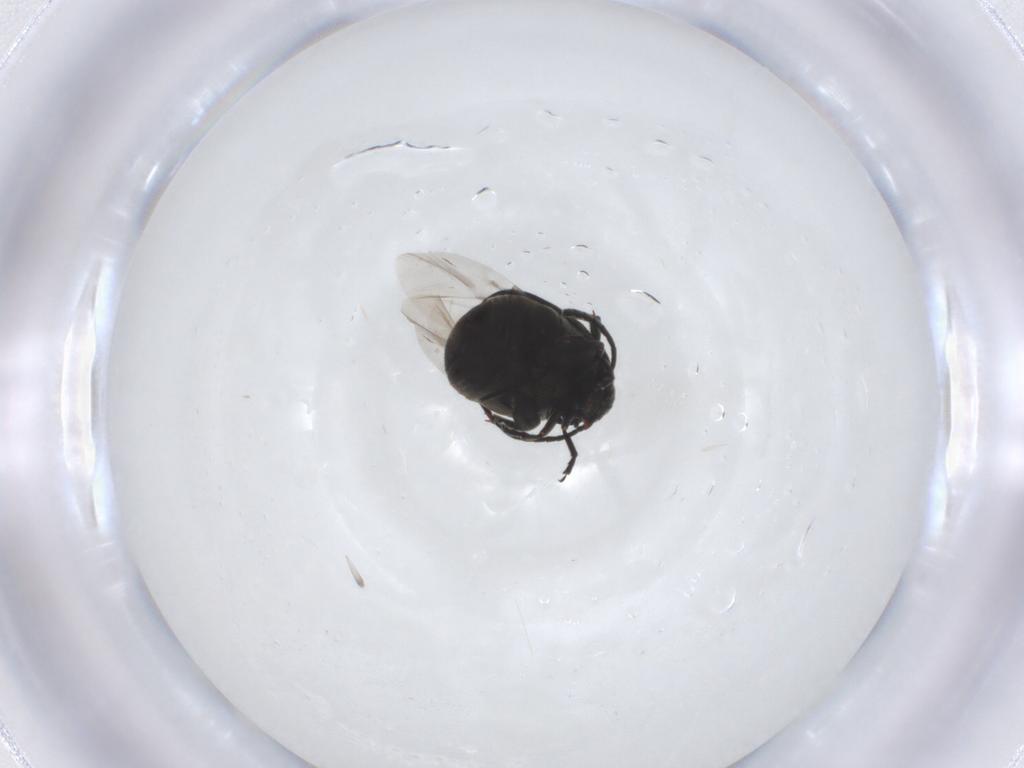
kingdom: Animalia
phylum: Arthropoda
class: Insecta
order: Coleoptera
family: Chrysomelidae
